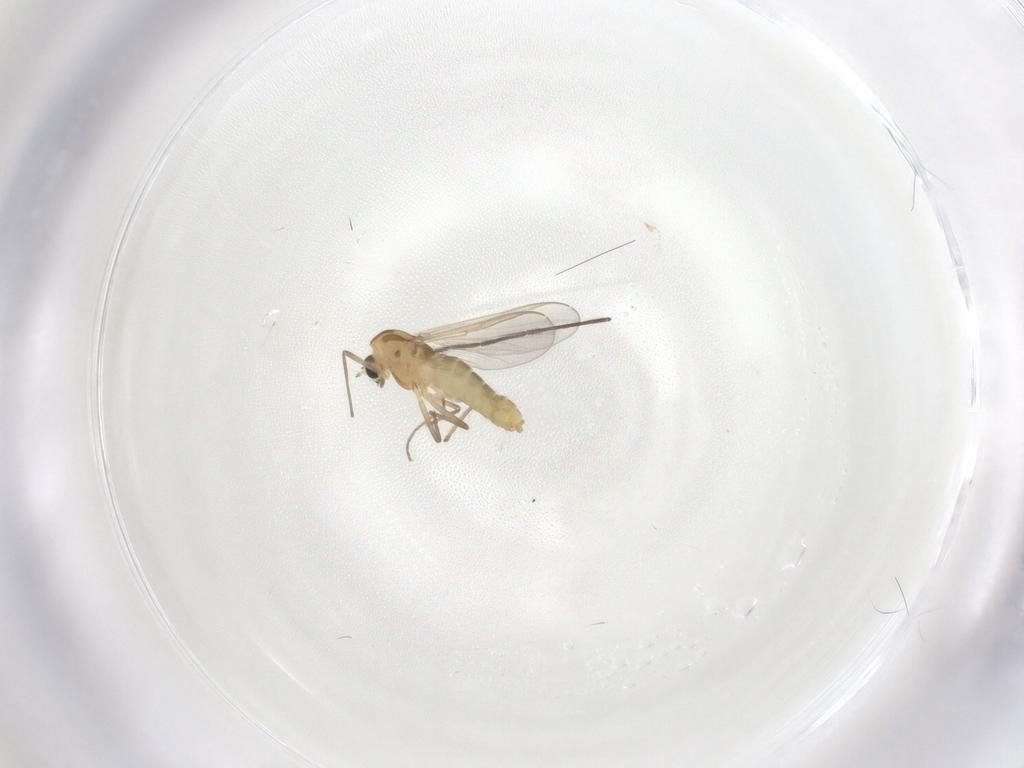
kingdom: Animalia
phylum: Arthropoda
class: Insecta
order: Diptera
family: Chironomidae
